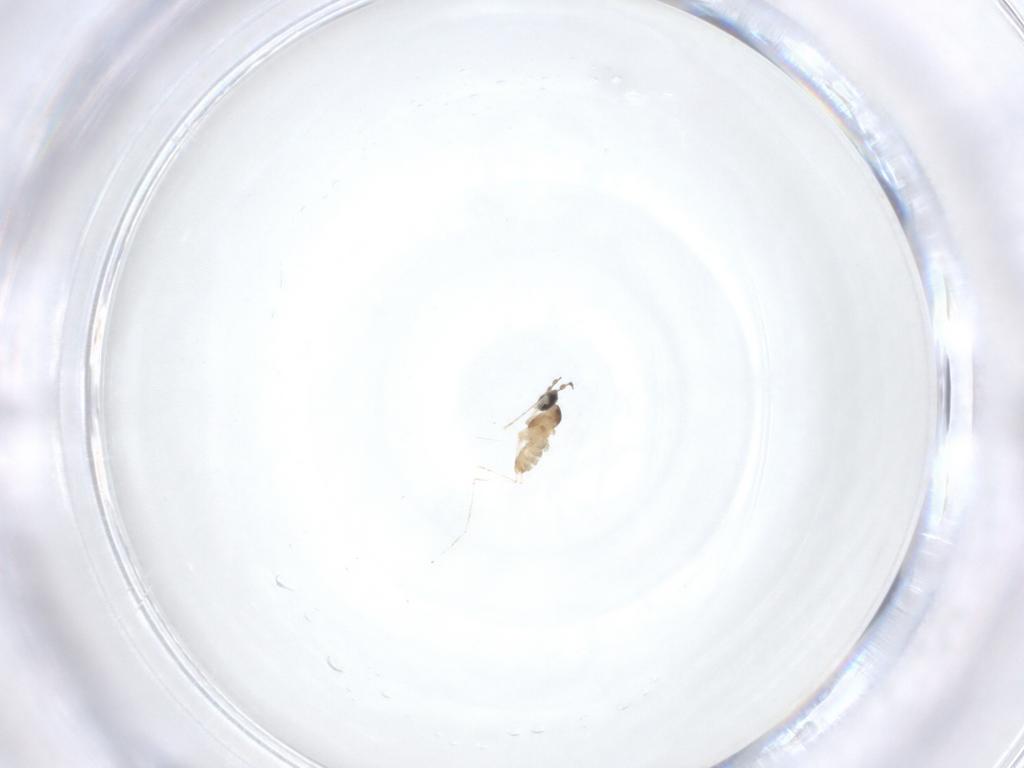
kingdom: Animalia
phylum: Arthropoda
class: Insecta
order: Diptera
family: Cecidomyiidae
